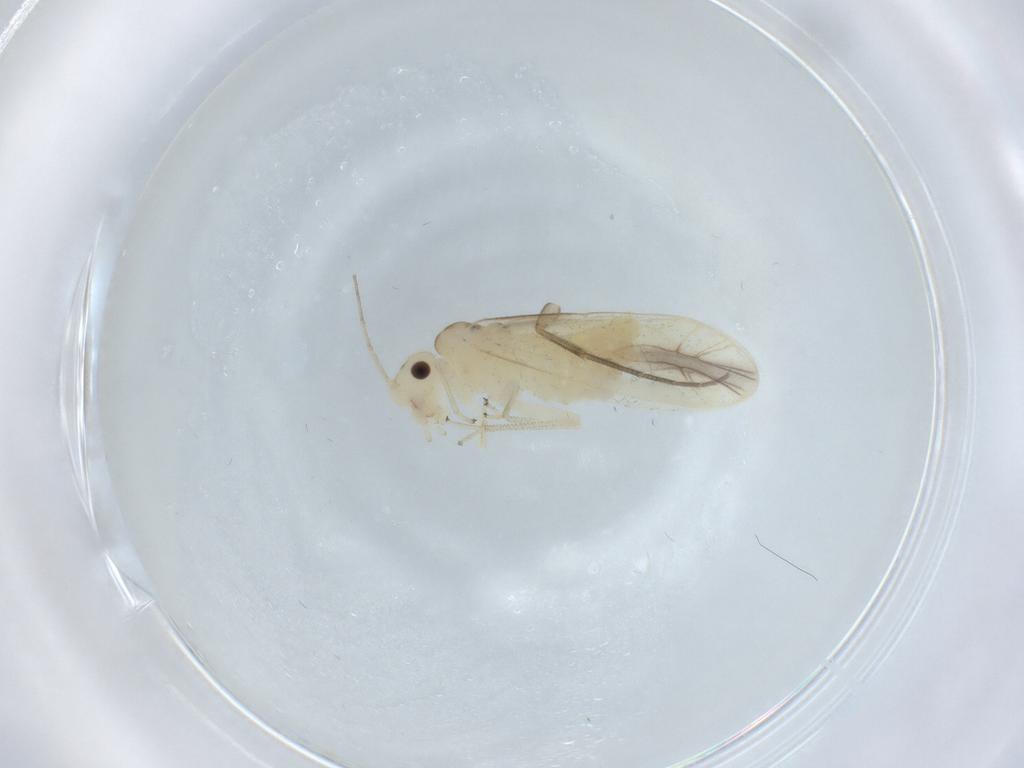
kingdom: Animalia
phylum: Arthropoda
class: Insecta
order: Psocodea
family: Caeciliusidae
